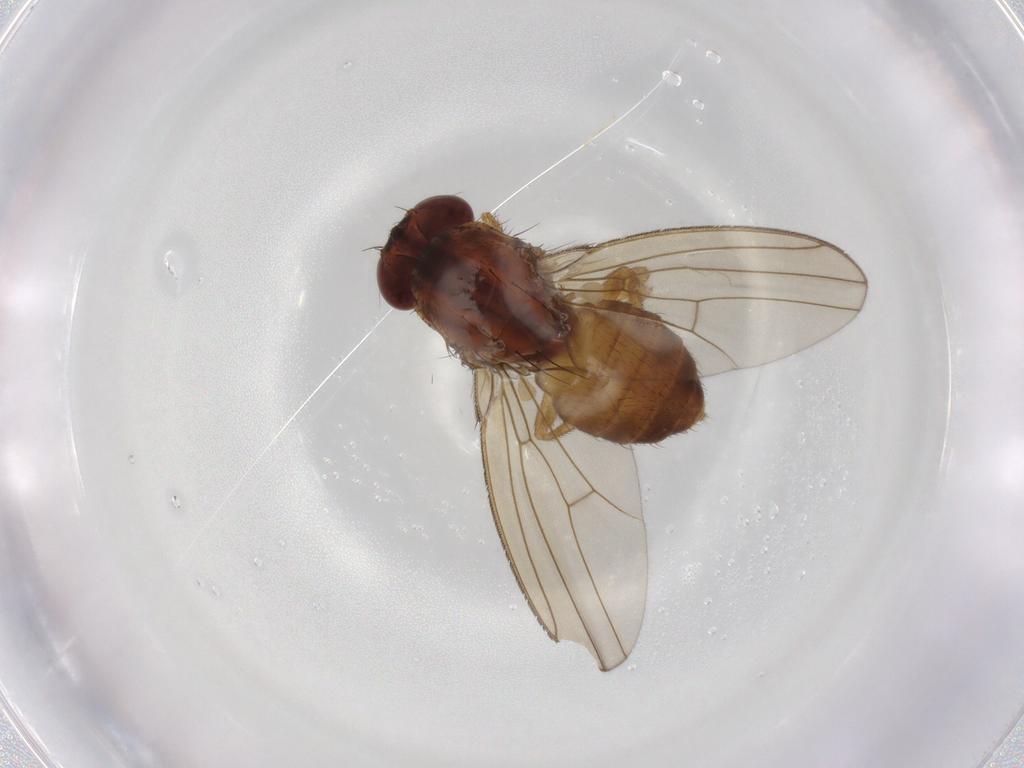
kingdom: Animalia
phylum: Arthropoda
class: Insecta
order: Diptera
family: Drosophilidae
